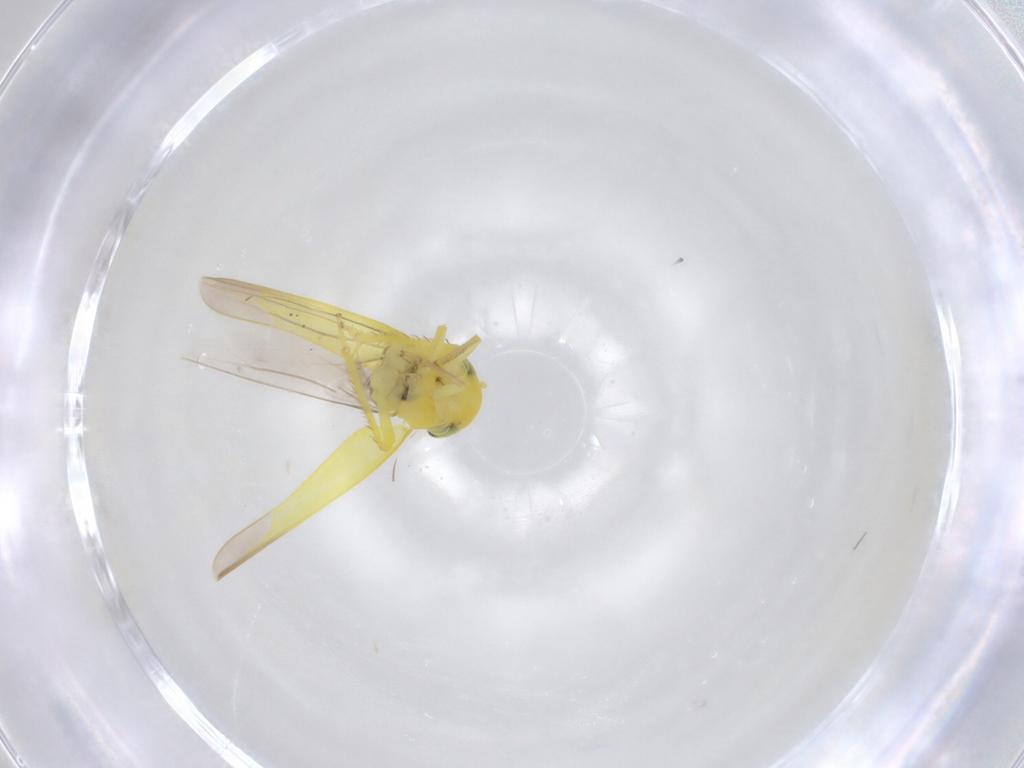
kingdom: Animalia
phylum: Arthropoda
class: Insecta
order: Hemiptera
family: Cicadellidae
